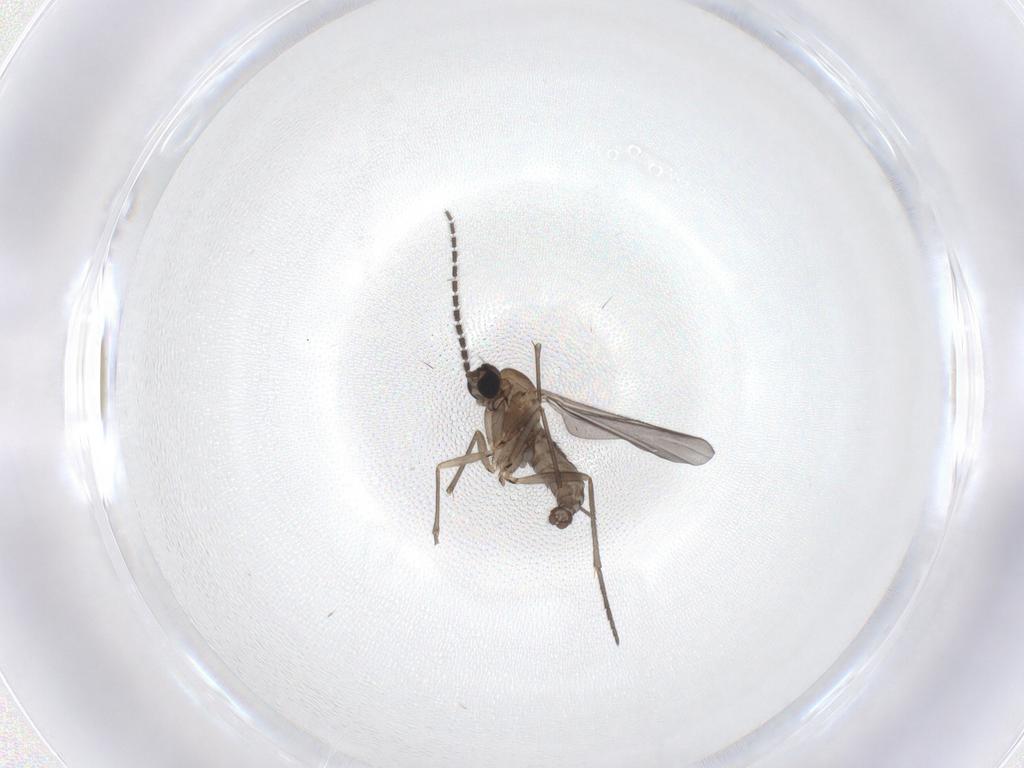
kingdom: Animalia
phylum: Arthropoda
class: Insecta
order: Diptera
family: Sciaridae
